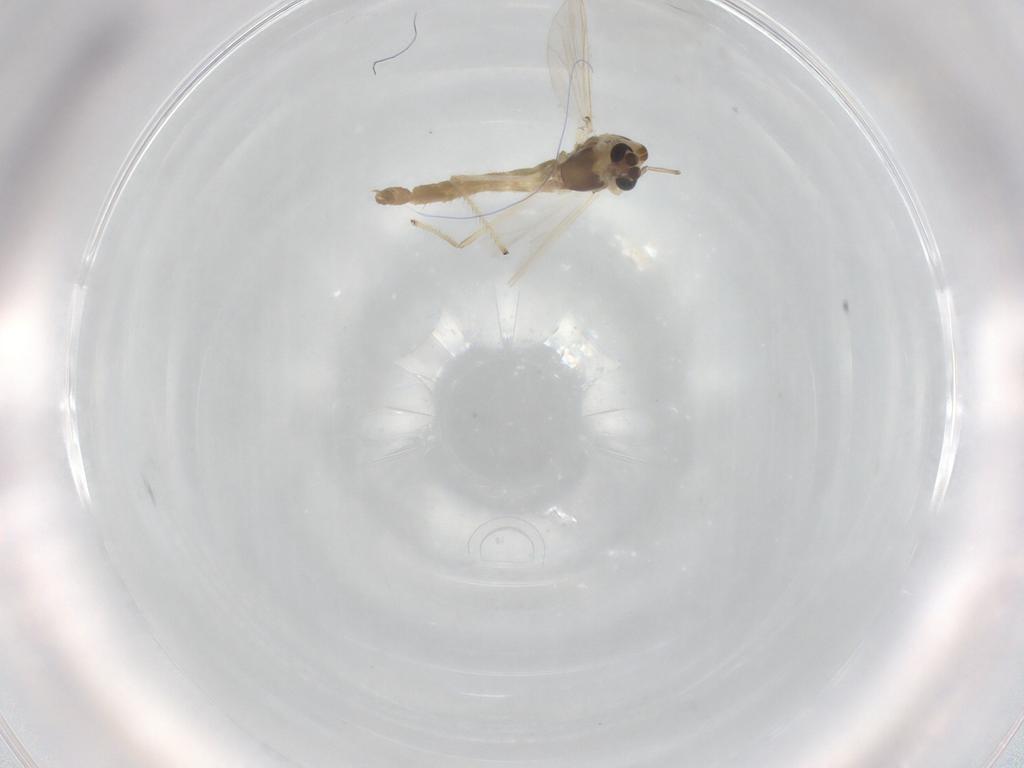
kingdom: Animalia
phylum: Arthropoda
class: Insecta
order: Diptera
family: Chironomidae
